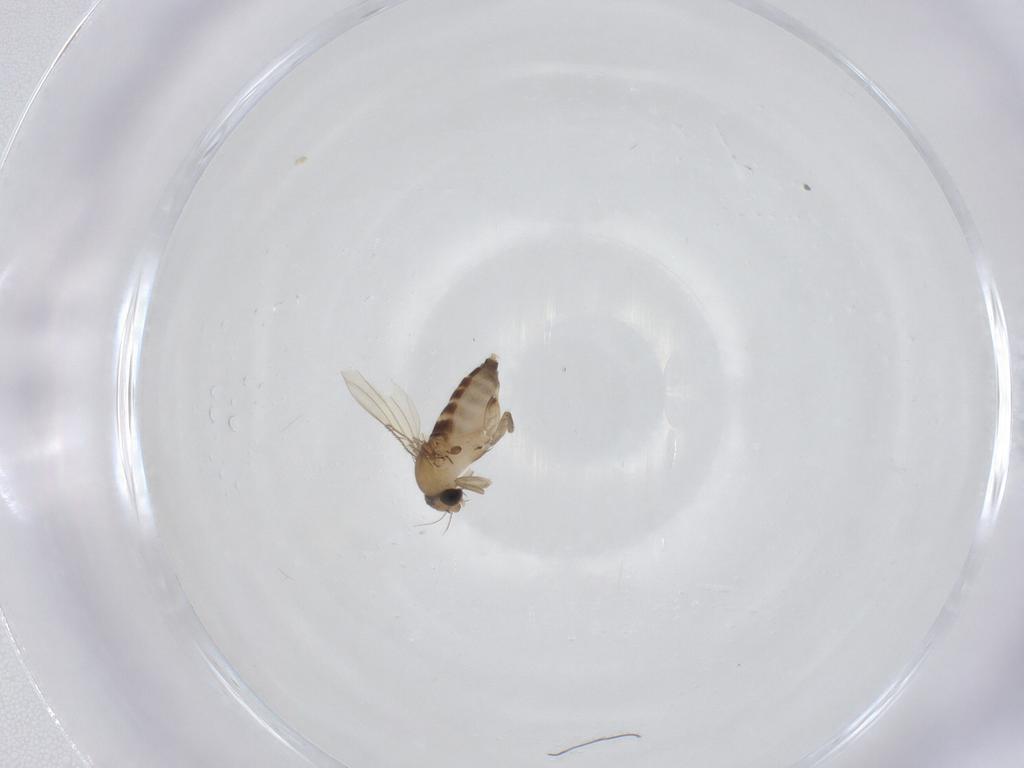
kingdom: Animalia
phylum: Arthropoda
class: Insecta
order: Diptera
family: Phoridae
